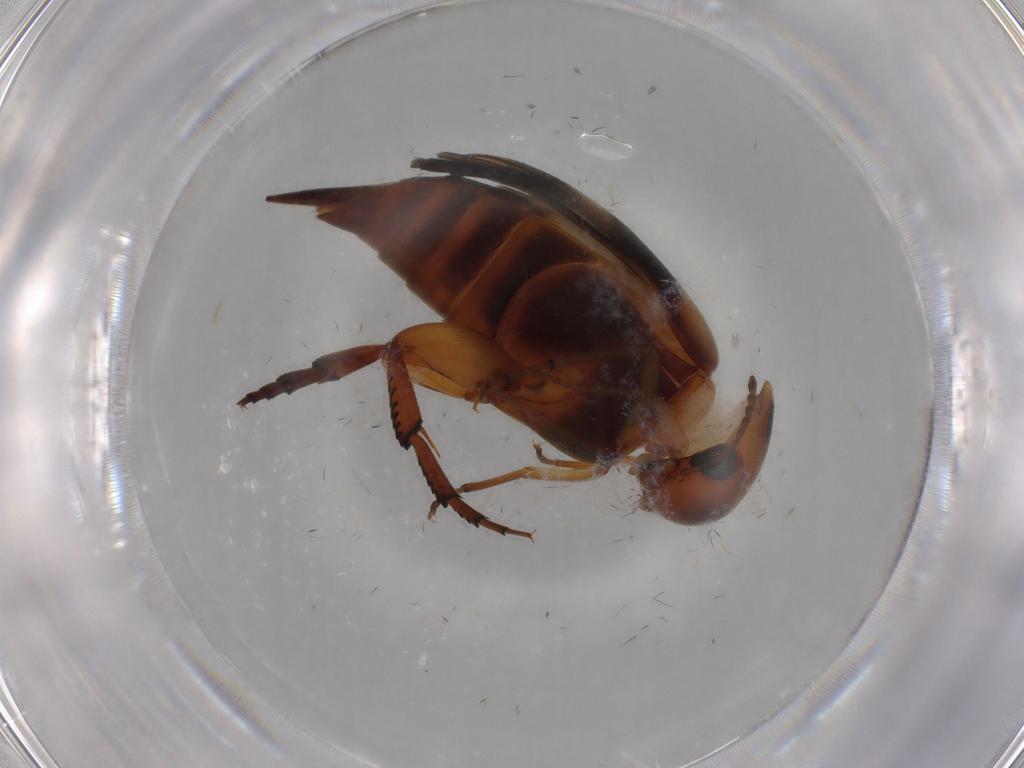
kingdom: Animalia
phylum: Arthropoda
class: Insecta
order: Coleoptera
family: Mordellidae
